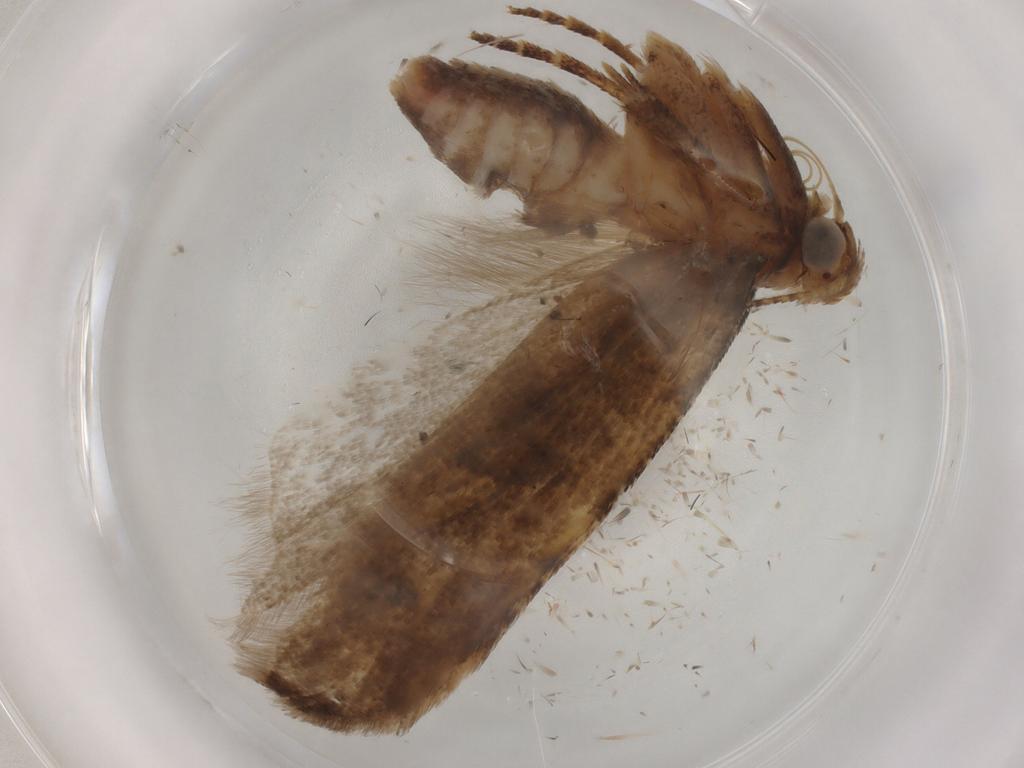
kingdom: Animalia
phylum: Arthropoda
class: Insecta
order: Lepidoptera
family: Gelechiidae
